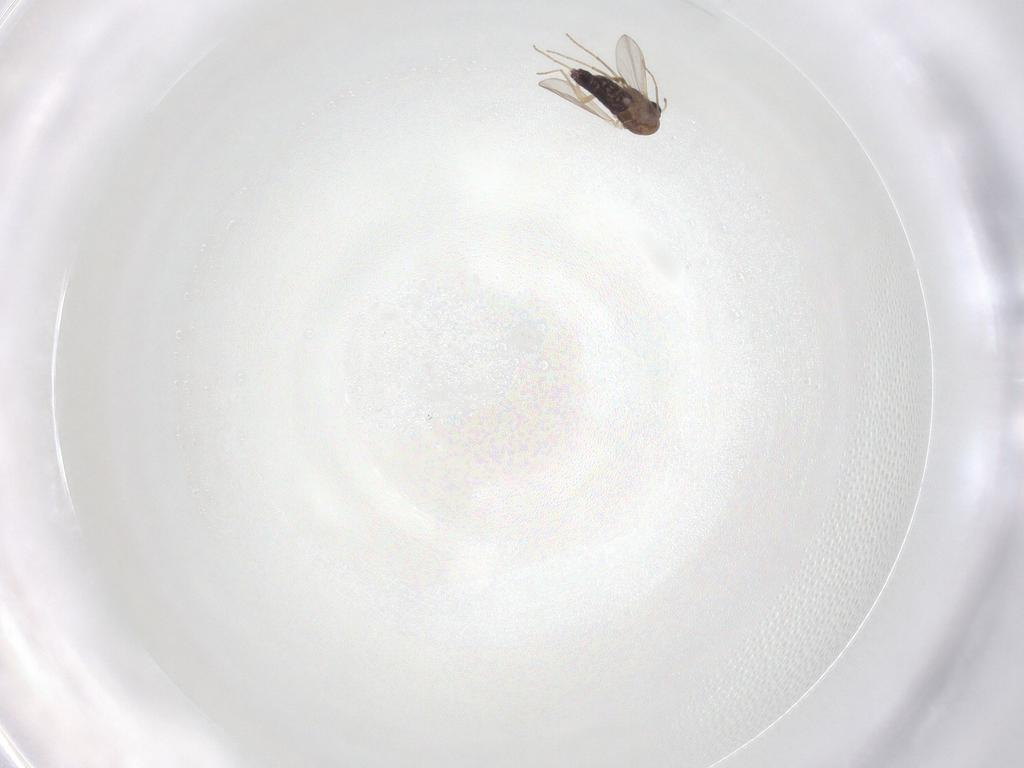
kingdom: Animalia
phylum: Arthropoda
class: Insecta
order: Diptera
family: Chironomidae
